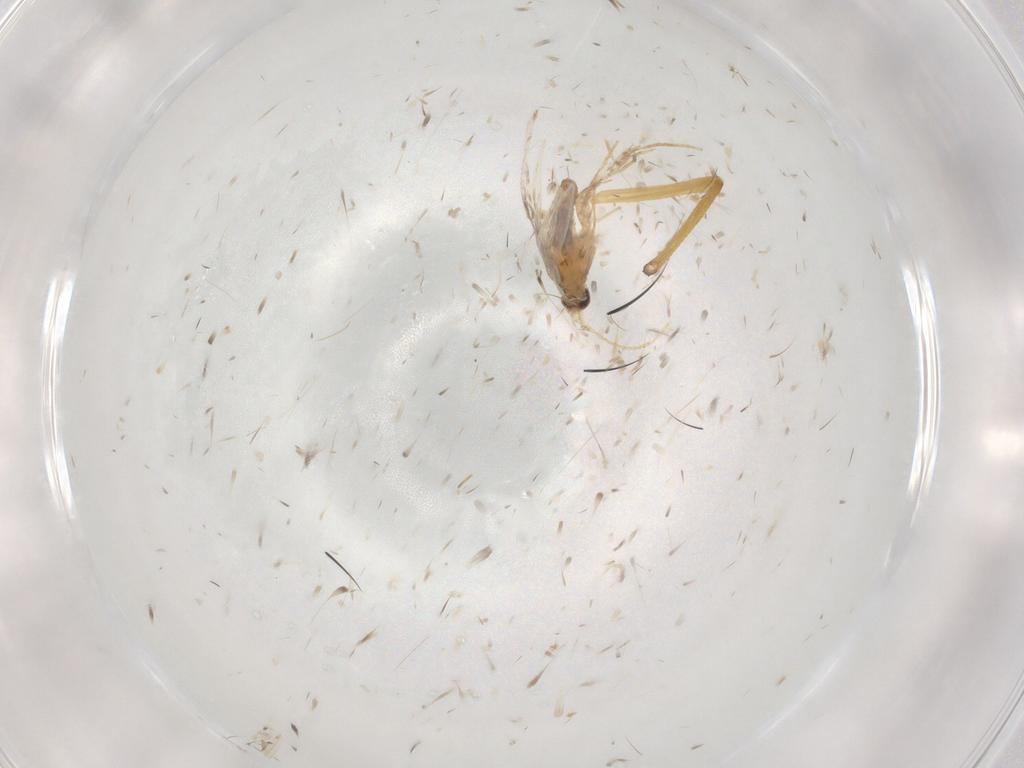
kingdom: Animalia
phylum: Arthropoda
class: Insecta
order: Lepidoptera
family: Nepticulidae
